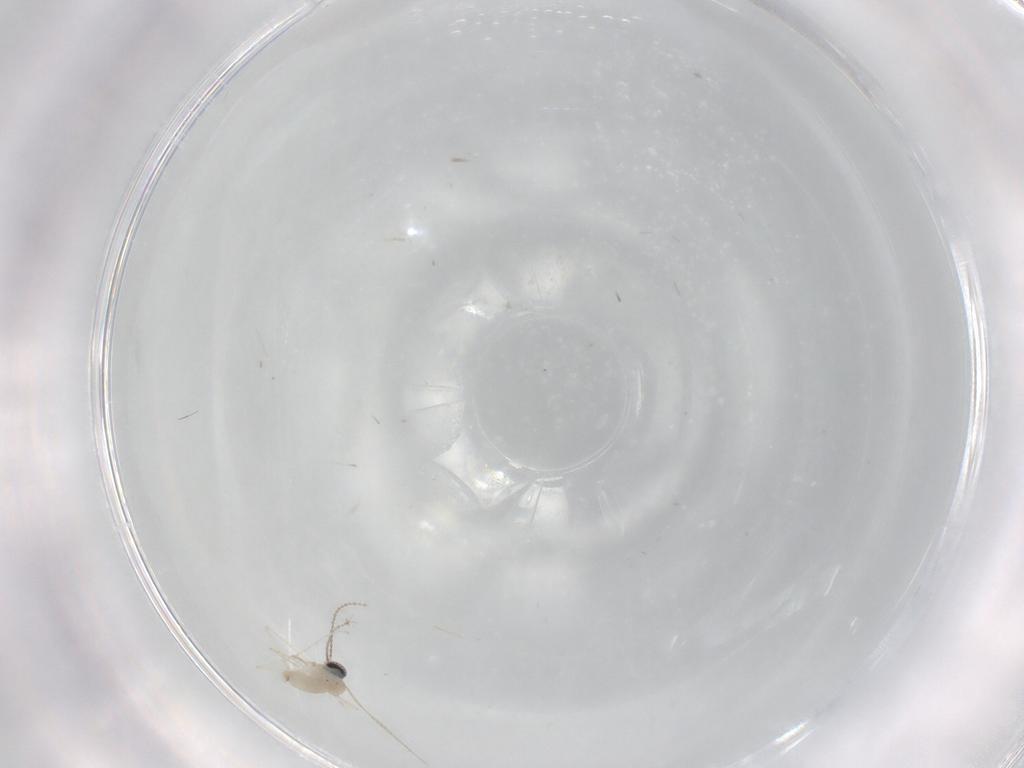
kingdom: Animalia
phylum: Arthropoda
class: Insecta
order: Diptera
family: Cecidomyiidae
